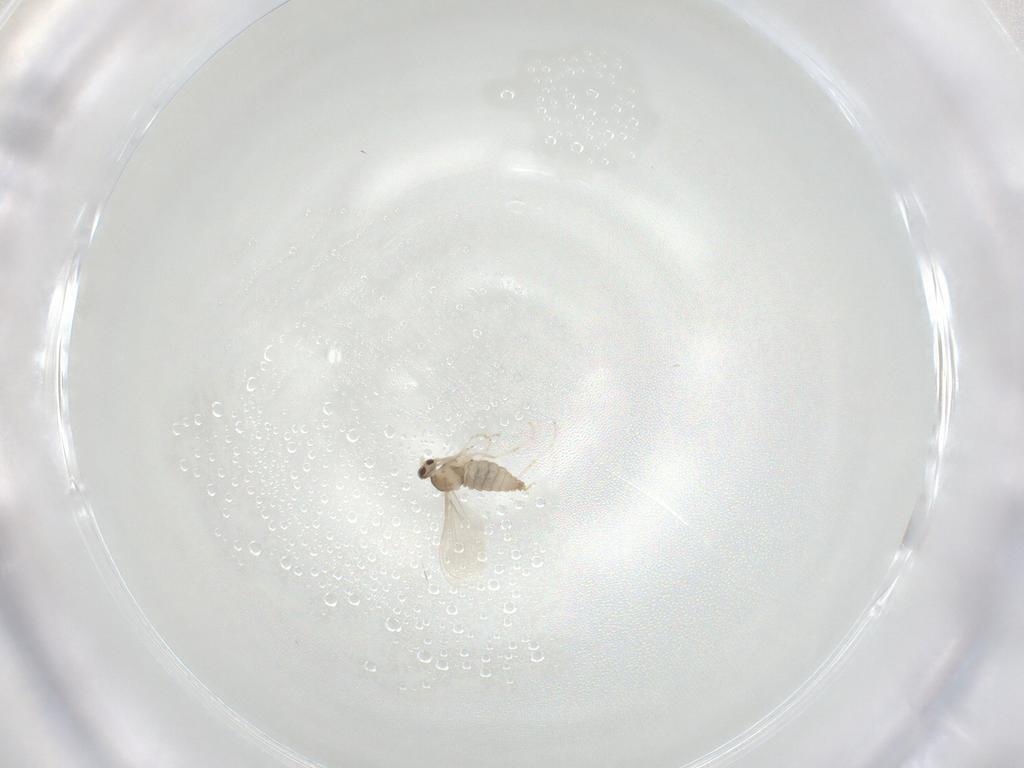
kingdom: Animalia
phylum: Arthropoda
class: Insecta
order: Diptera
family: Cecidomyiidae
